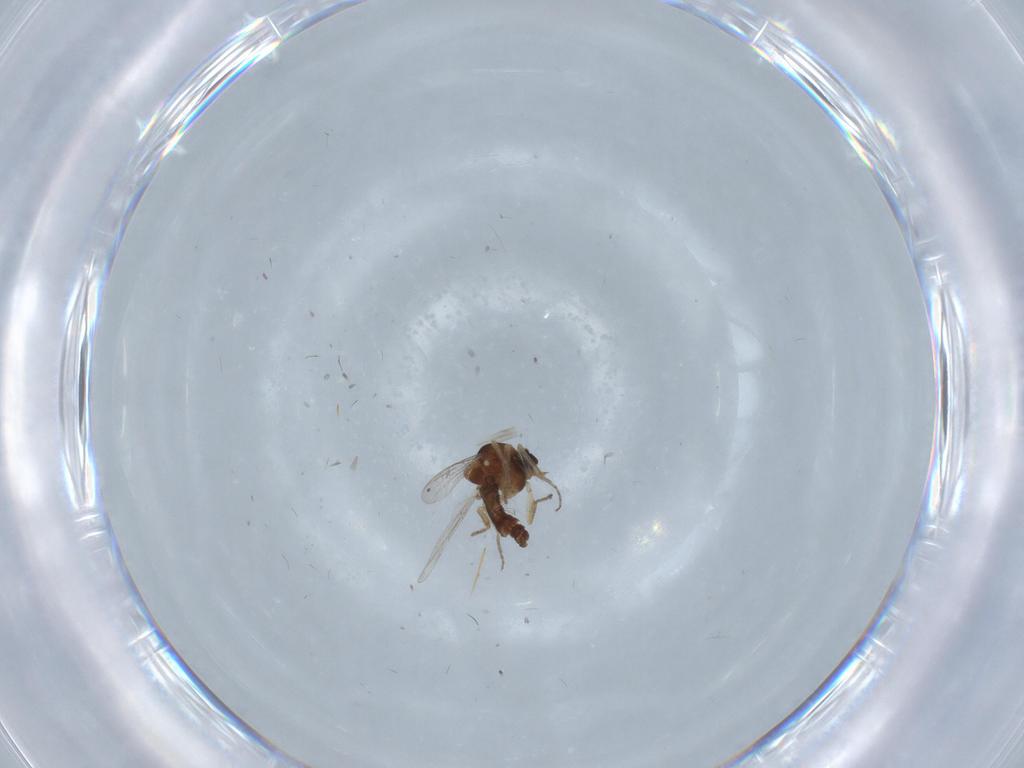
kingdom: Animalia
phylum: Arthropoda
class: Insecta
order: Diptera
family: Ceratopogonidae
